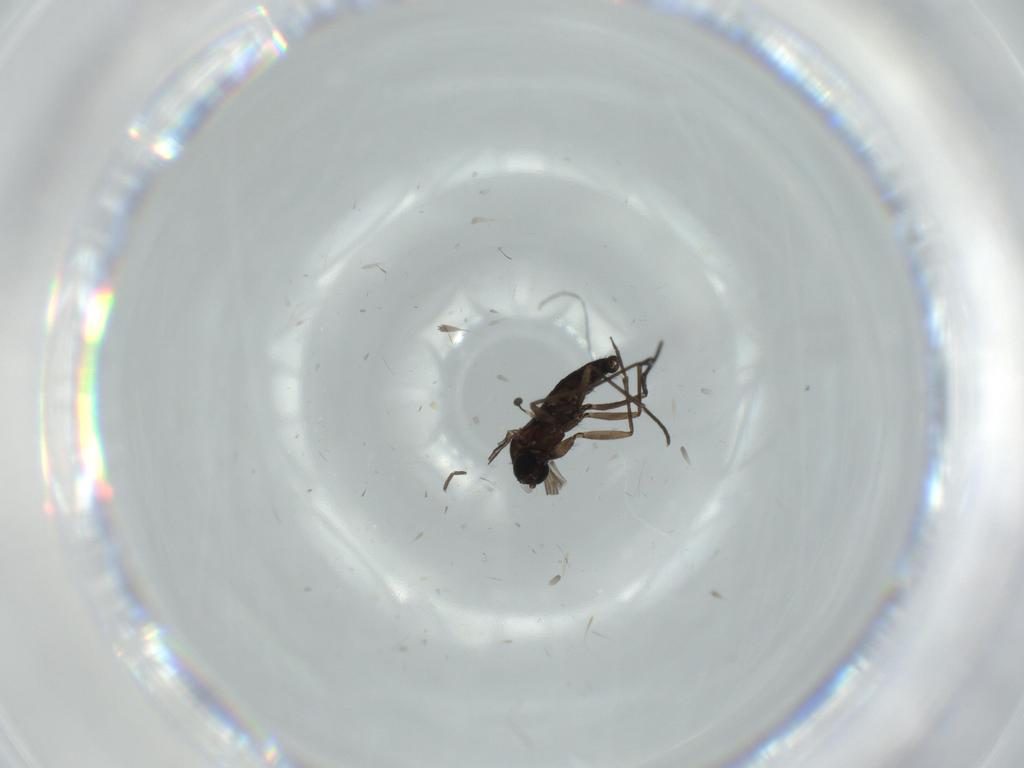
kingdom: Animalia
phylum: Arthropoda
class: Insecta
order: Diptera
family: Sciaridae
